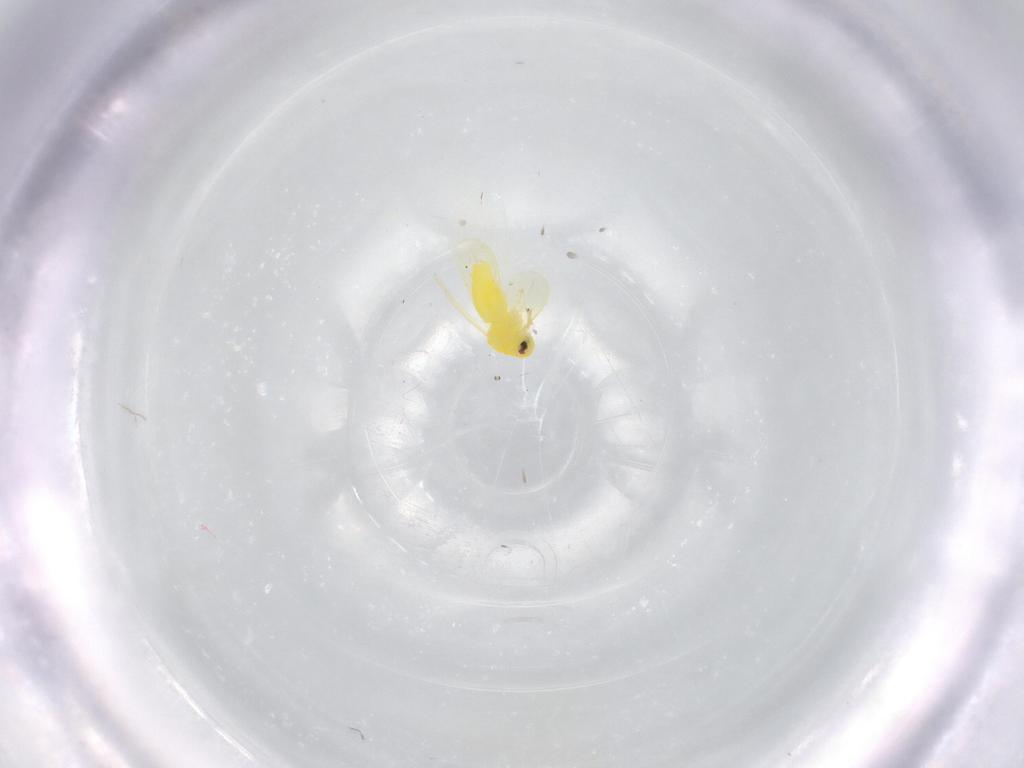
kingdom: Animalia
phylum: Arthropoda
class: Insecta
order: Hemiptera
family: Aleyrodidae
